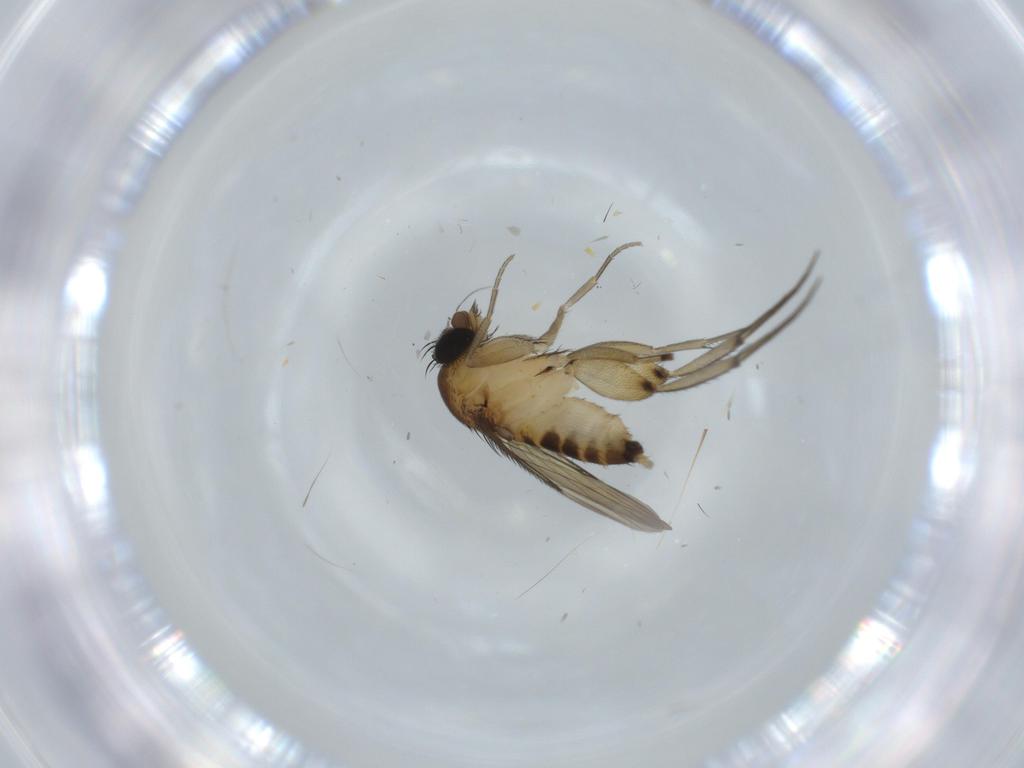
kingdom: Animalia
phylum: Arthropoda
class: Insecta
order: Diptera
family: Phoridae
